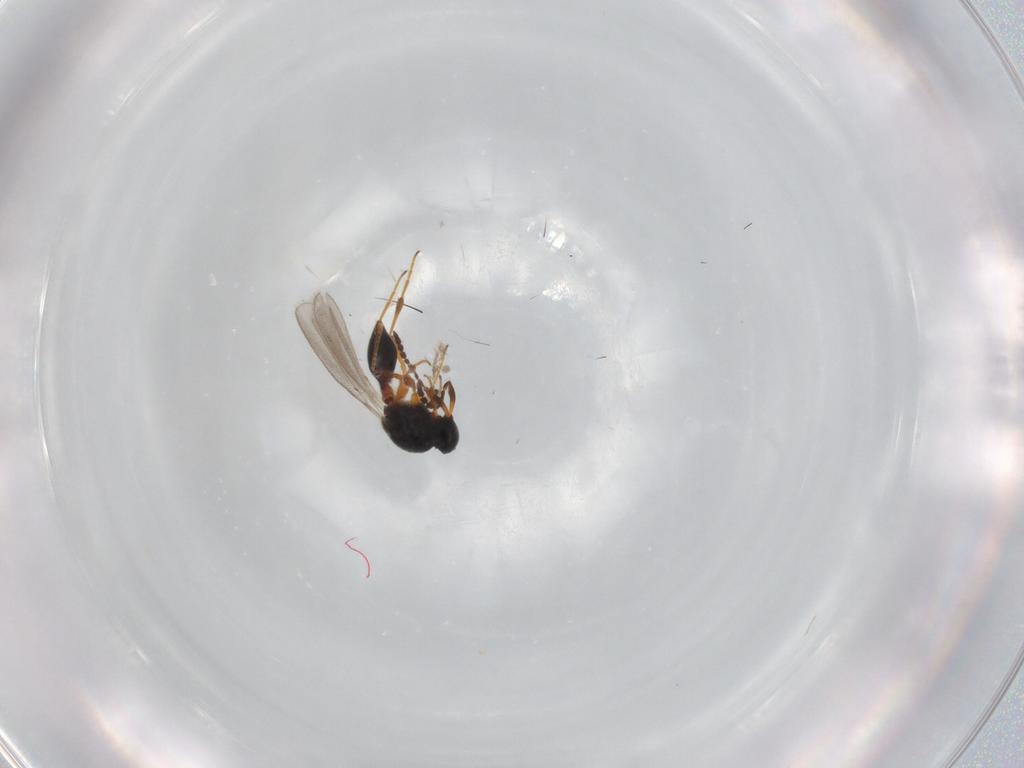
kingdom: Animalia
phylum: Arthropoda
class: Insecta
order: Hymenoptera
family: Platygastridae
